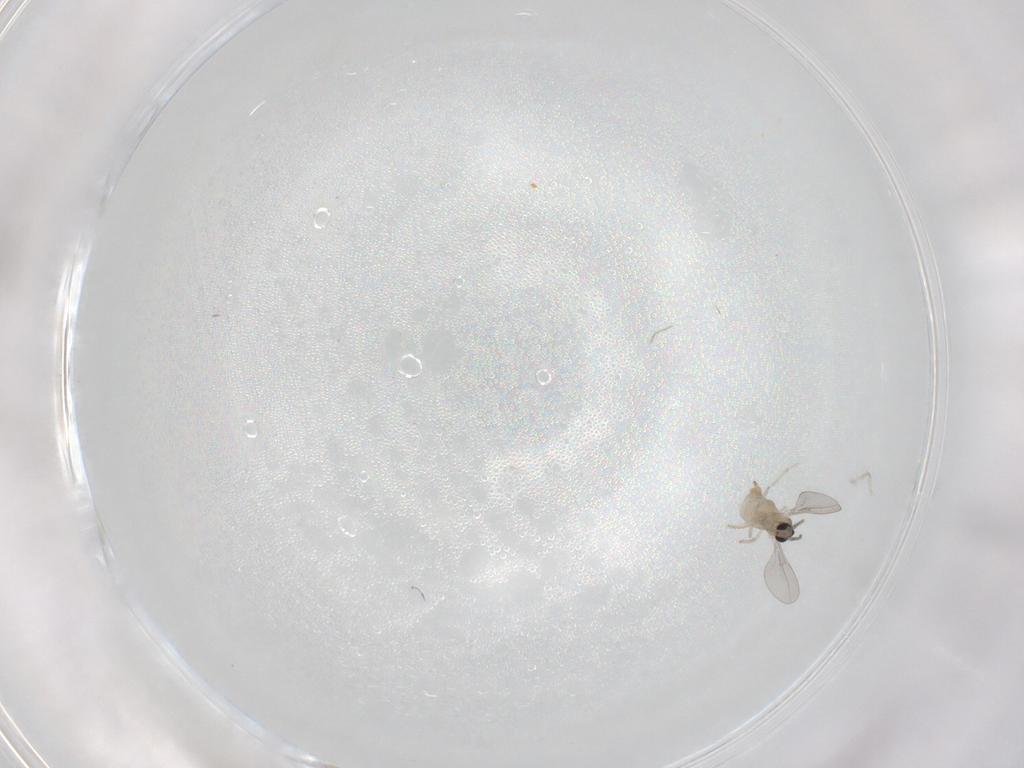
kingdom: Animalia
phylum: Arthropoda
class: Insecta
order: Diptera
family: Cecidomyiidae
